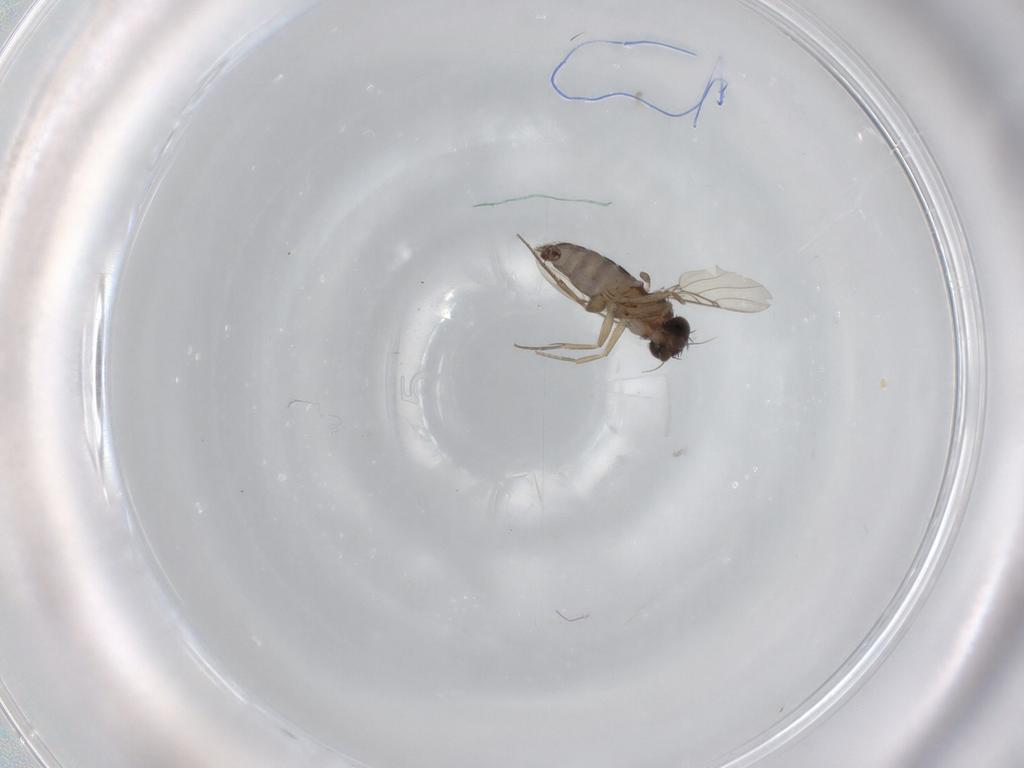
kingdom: Animalia
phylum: Arthropoda
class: Insecta
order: Diptera
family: Phoridae
